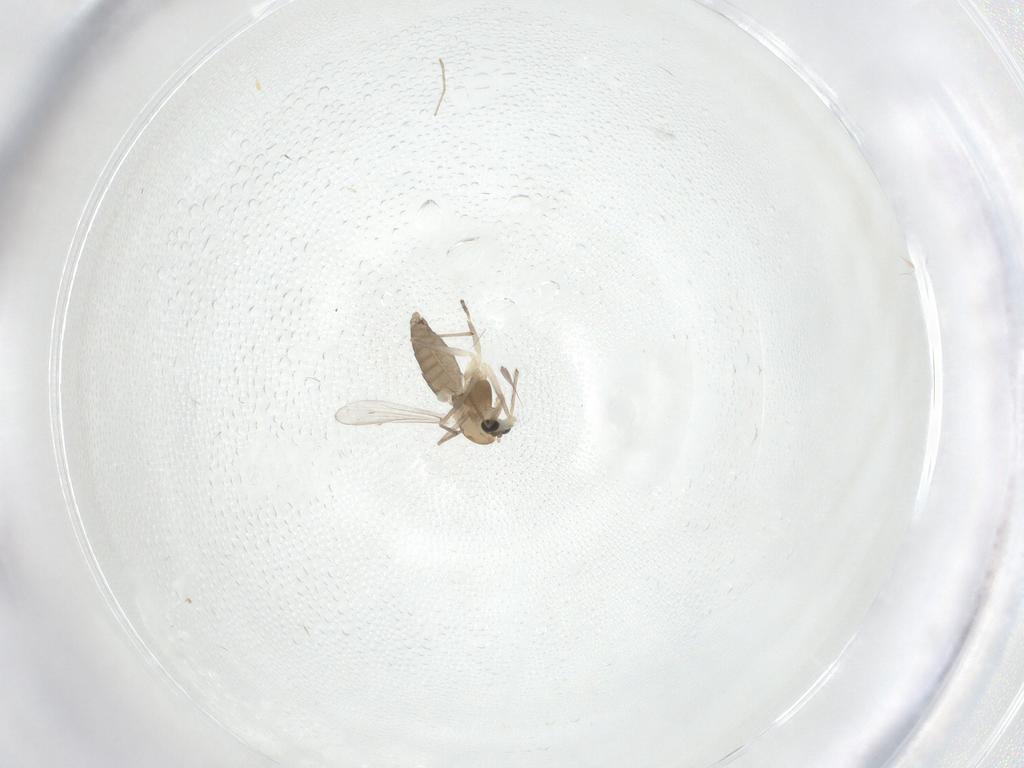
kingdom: Animalia
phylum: Arthropoda
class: Insecta
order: Diptera
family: Chironomidae
